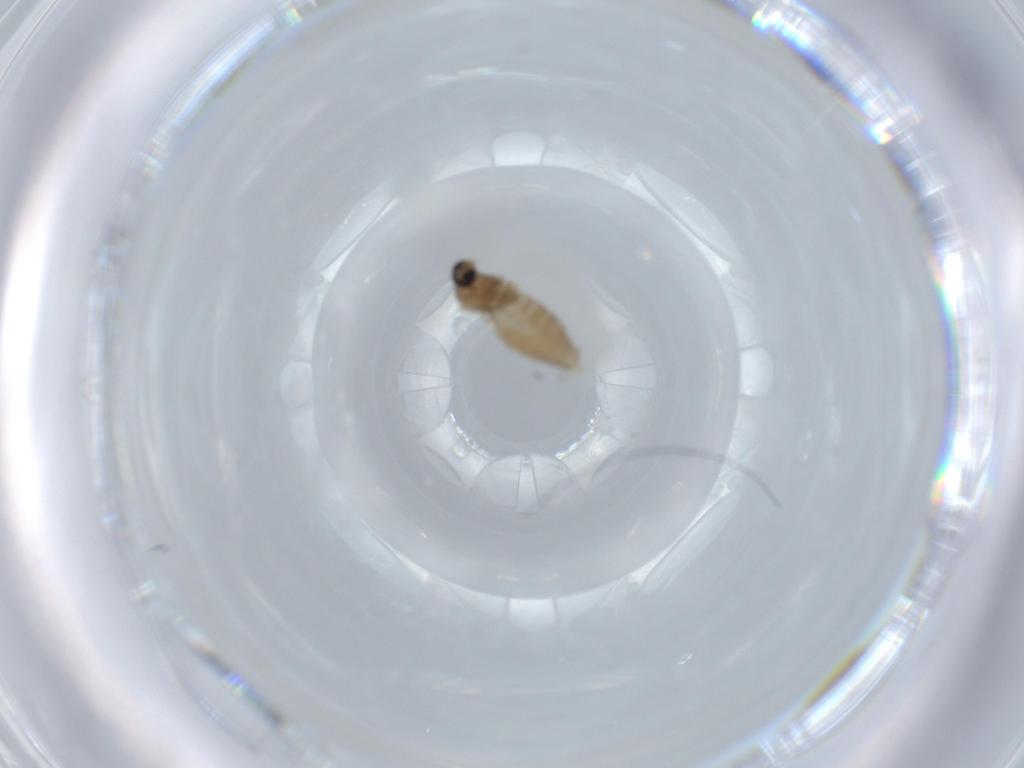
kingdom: Animalia
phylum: Arthropoda
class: Insecta
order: Diptera
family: Cecidomyiidae
